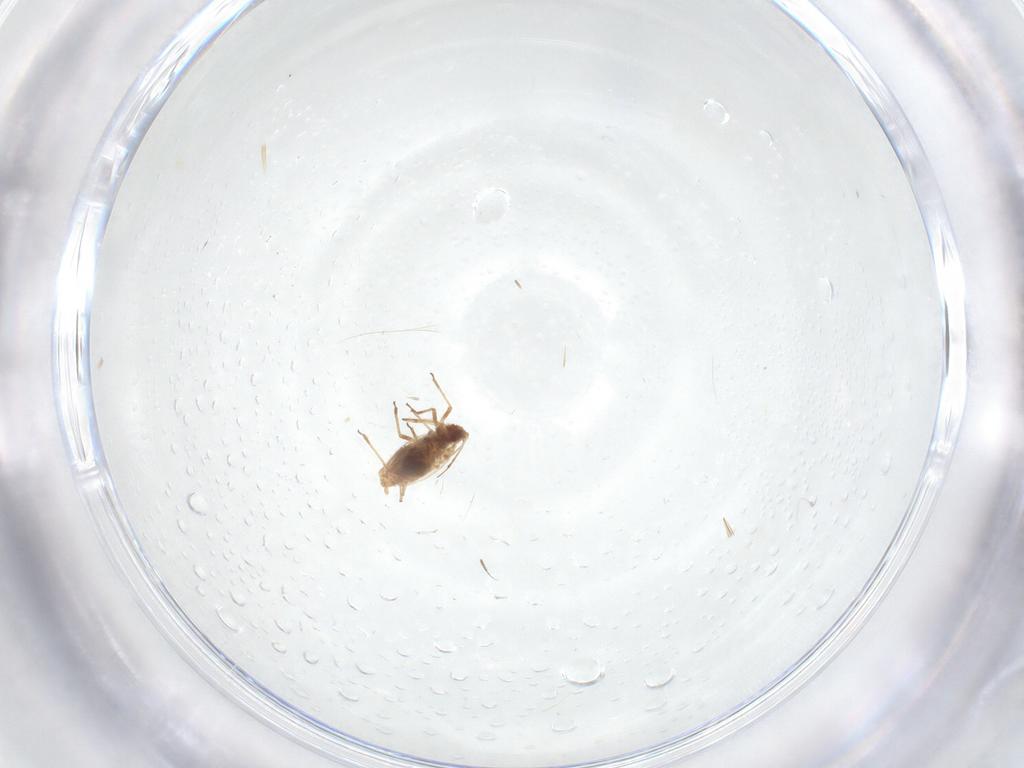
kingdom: Animalia
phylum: Arthropoda
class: Insecta
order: Hemiptera
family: Aphididae
